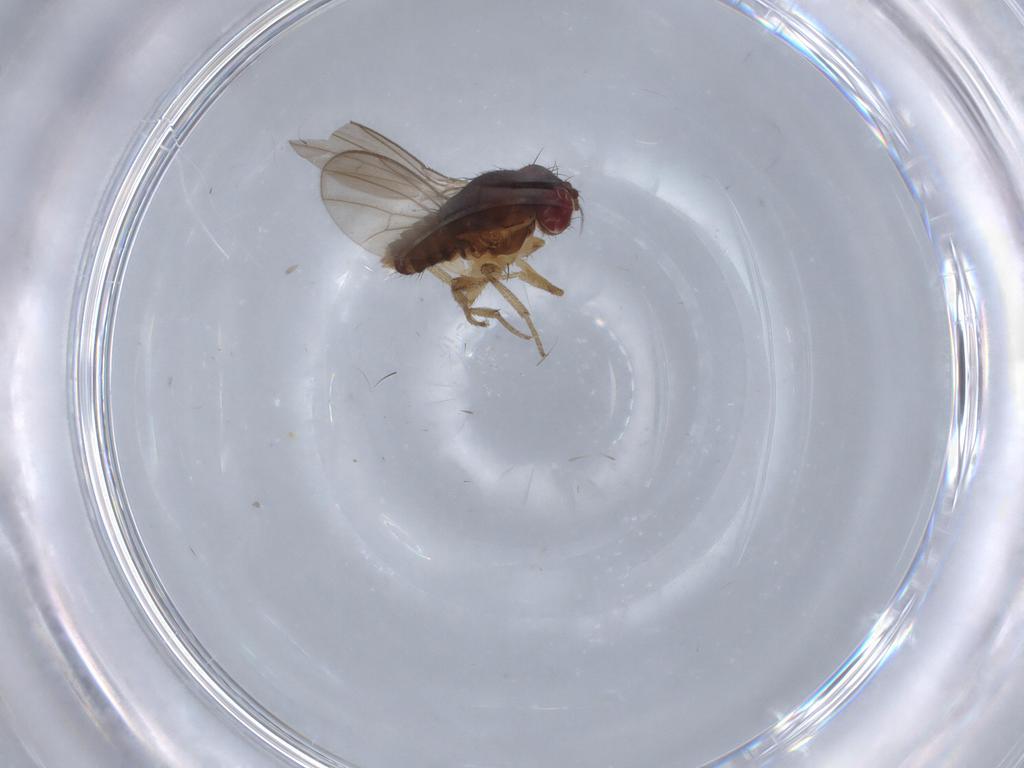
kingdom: Animalia
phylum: Arthropoda
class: Insecta
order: Diptera
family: Drosophilidae
